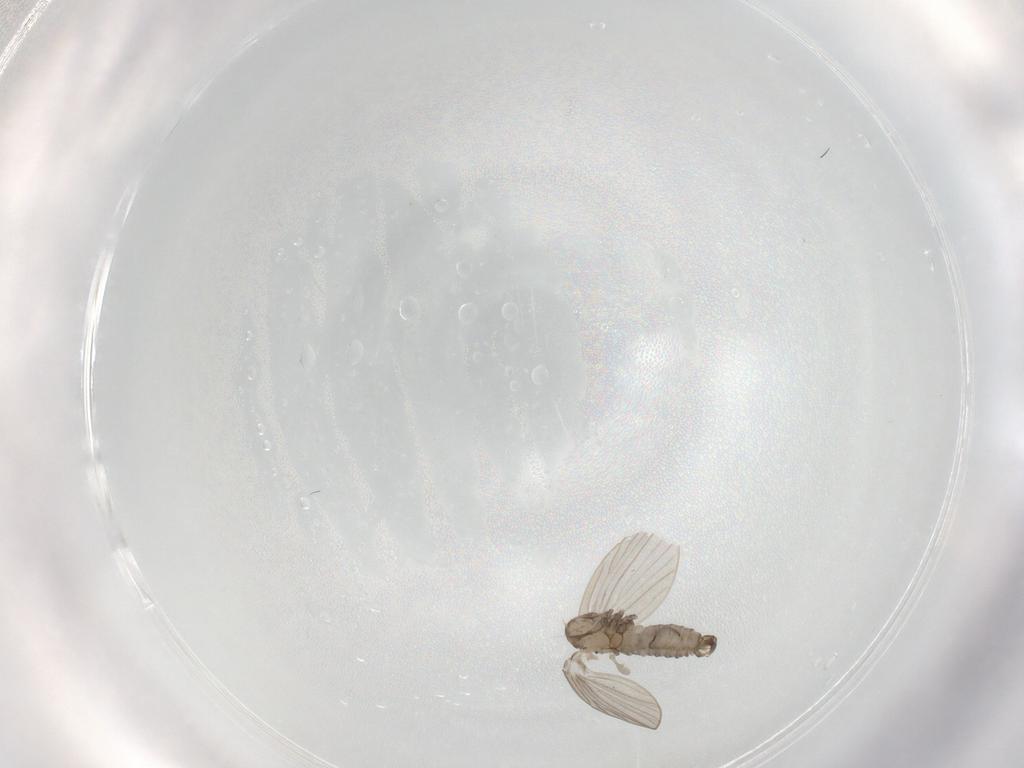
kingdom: Animalia
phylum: Arthropoda
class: Insecta
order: Diptera
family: Psychodidae
